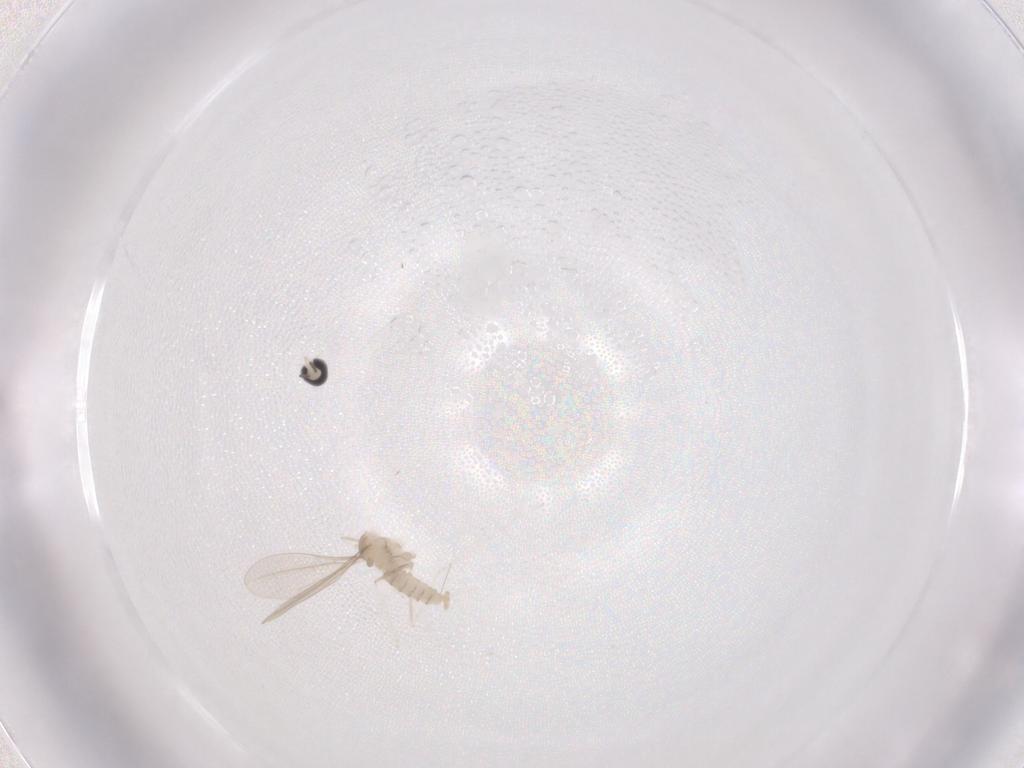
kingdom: Animalia
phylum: Arthropoda
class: Insecta
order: Diptera
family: Cecidomyiidae
